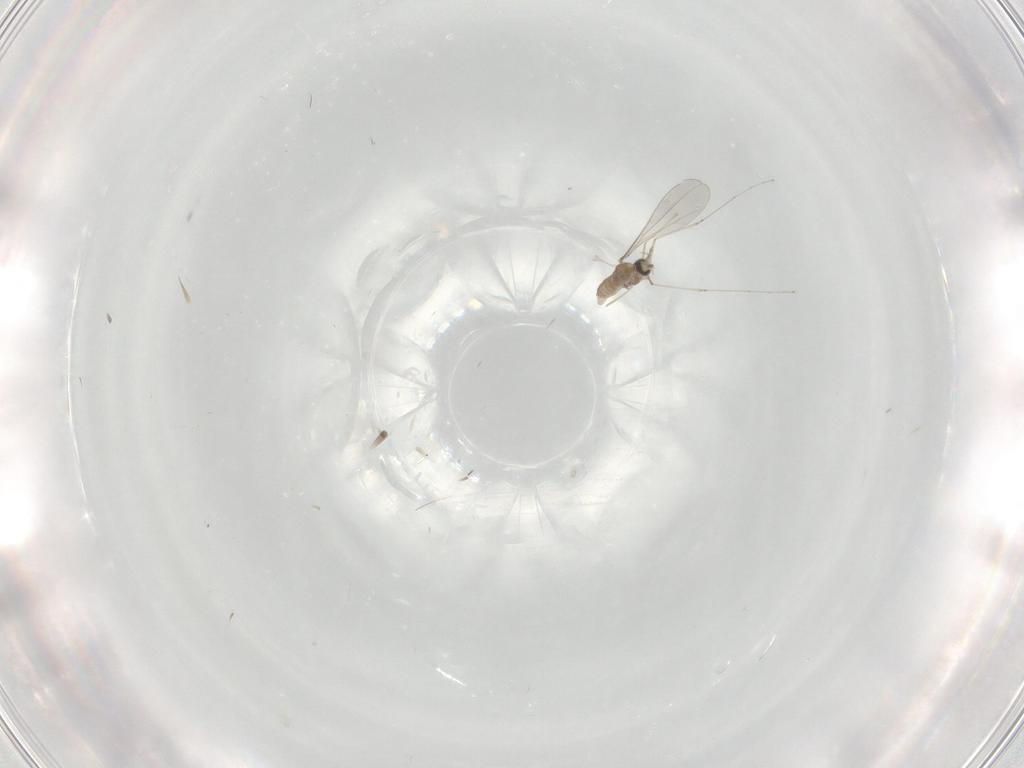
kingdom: Animalia
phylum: Arthropoda
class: Insecta
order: Diptera
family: Cecidomyiidae
